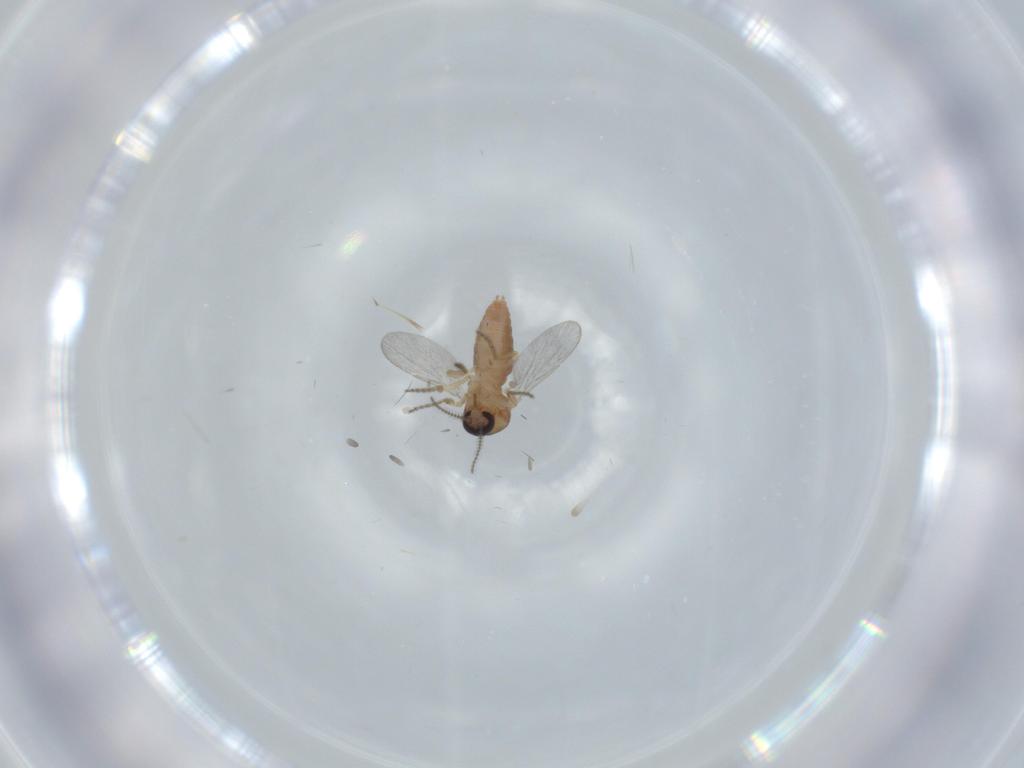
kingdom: Animalia
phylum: Arthropoda
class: Insecta
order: Diptera
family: Ceratopogonidae
